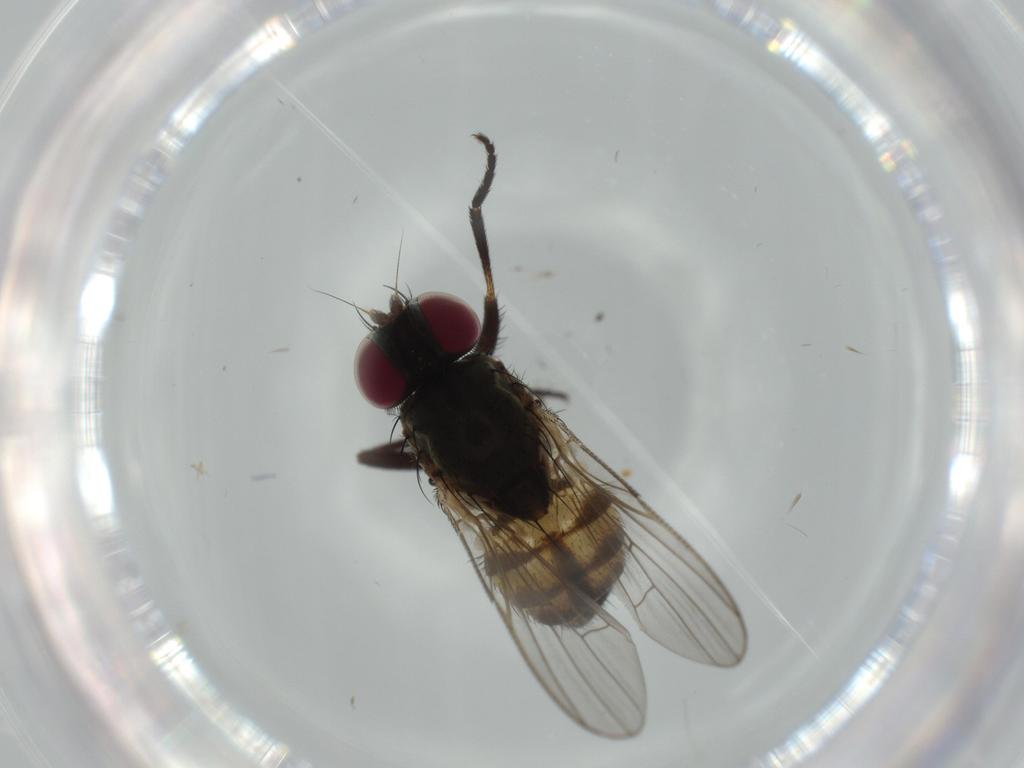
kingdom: Animalia
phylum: Arthropoda
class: Insecta
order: Diptera
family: Fannia
